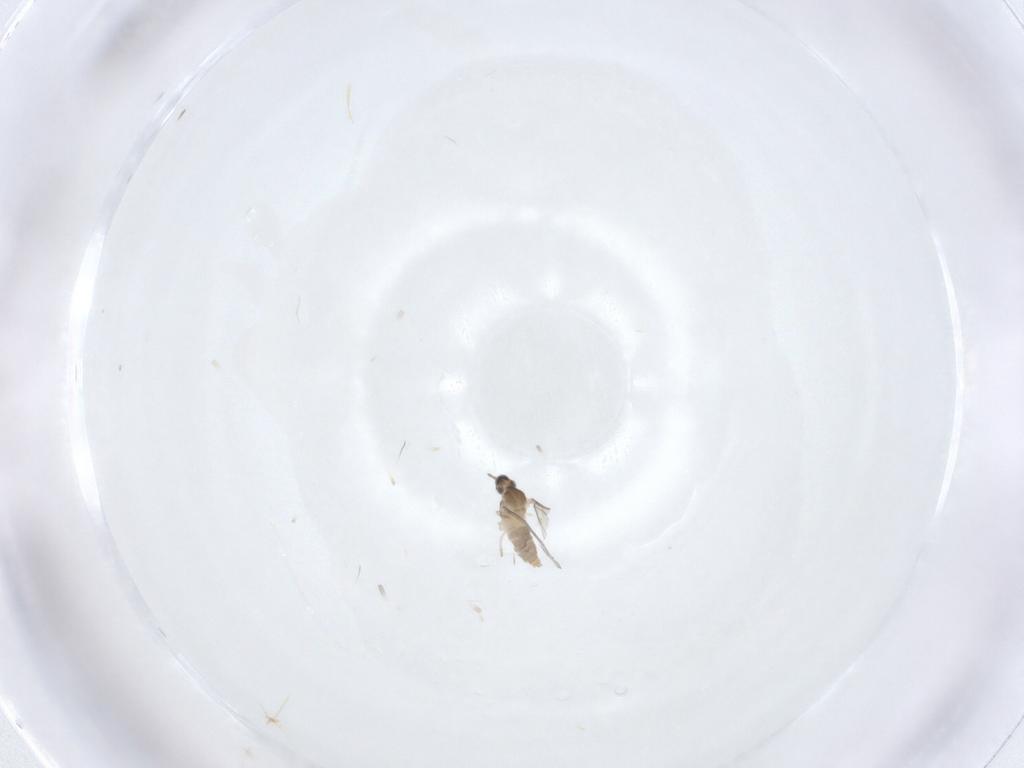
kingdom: Animalia
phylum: Arthropoda
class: Insecta
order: Diptera
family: Cecidomyiidae
